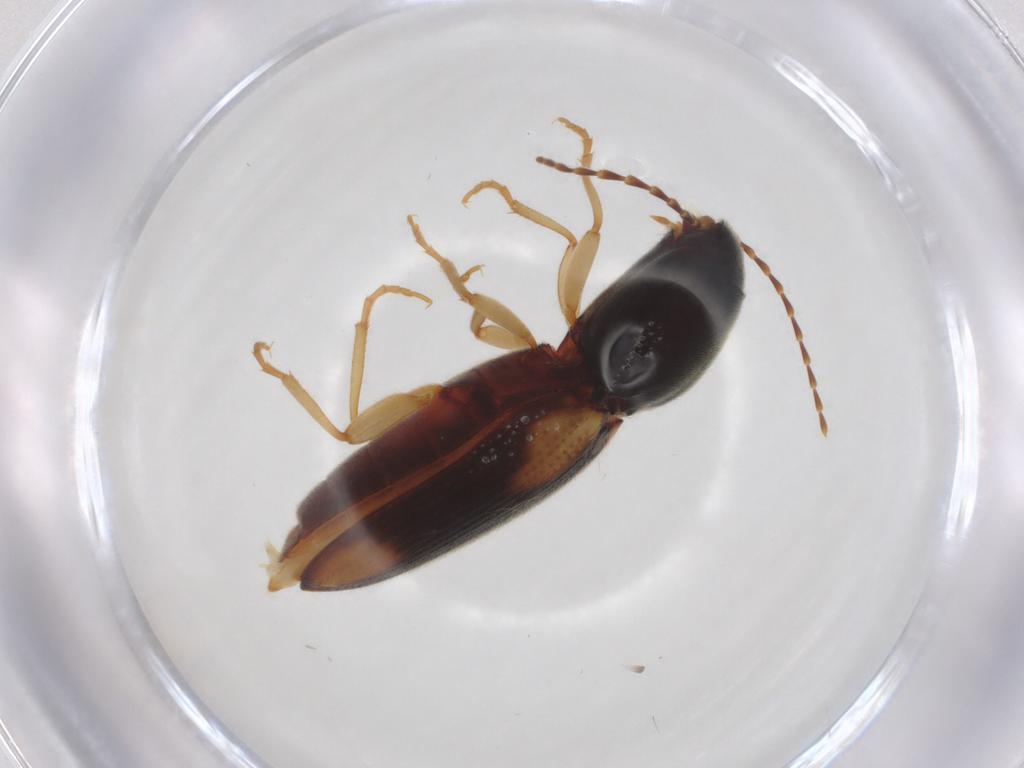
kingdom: Animalia
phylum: Arthropoda
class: Insecta
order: Coleoptera
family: Elateridae
